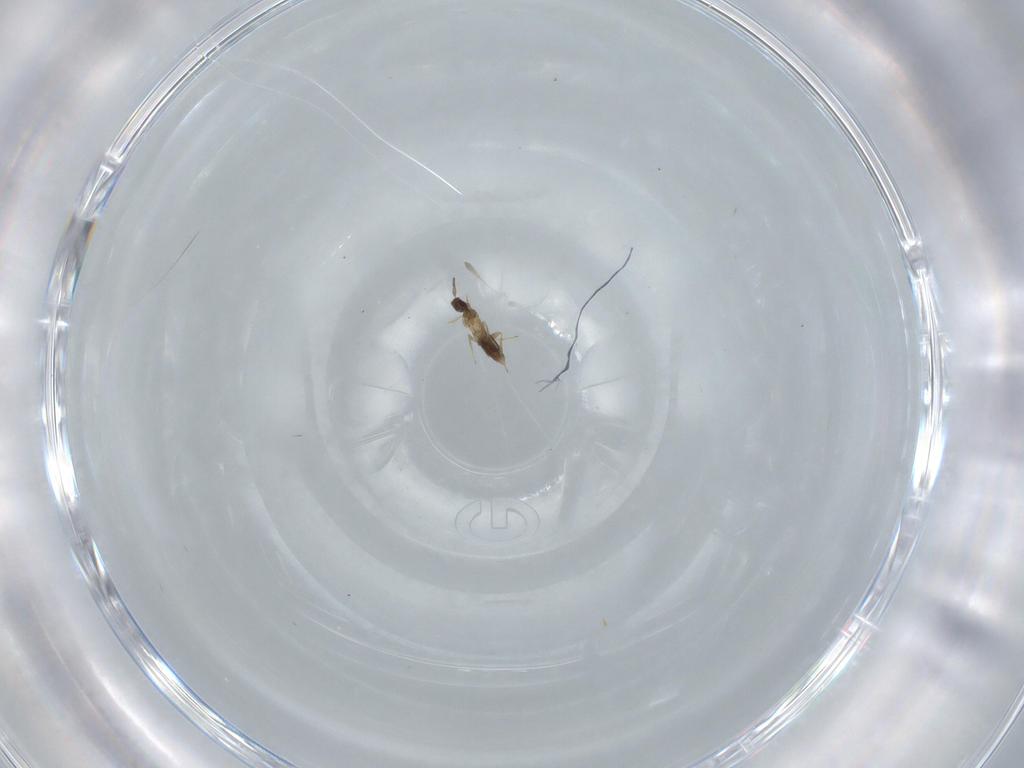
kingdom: Animalia
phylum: Arthropoda
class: Insecta
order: Hymenoptera
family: Mymaridae
